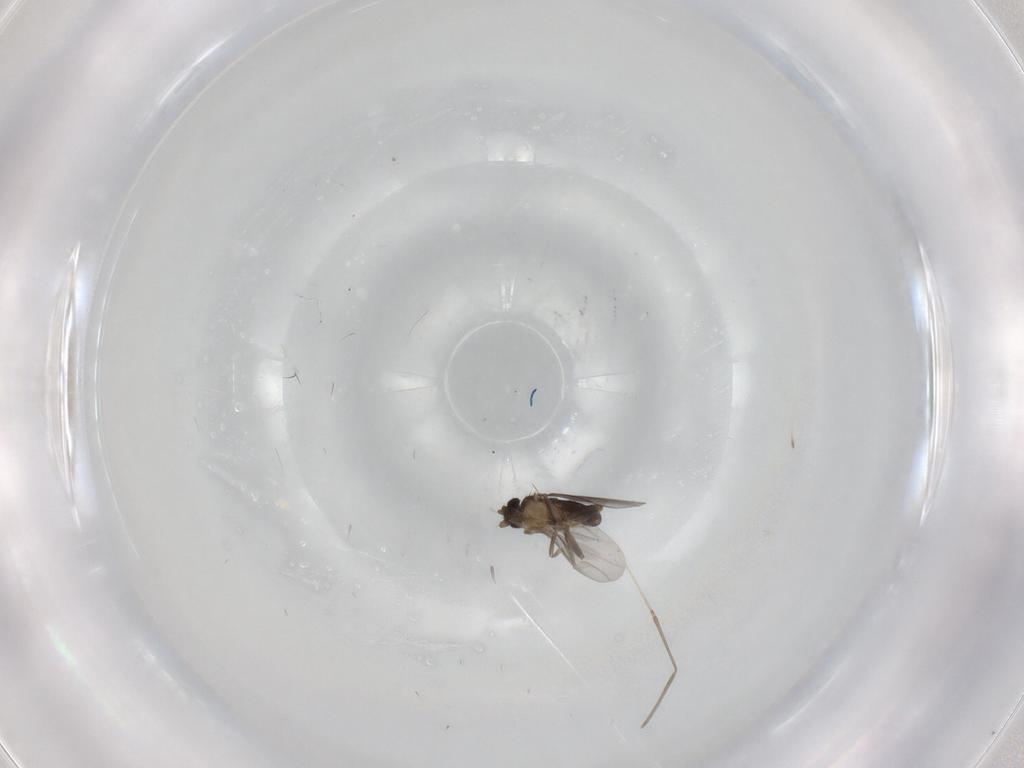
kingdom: Animalia
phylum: Arthropoda
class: Insecta
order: Diptera
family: Cecidomyiidae
